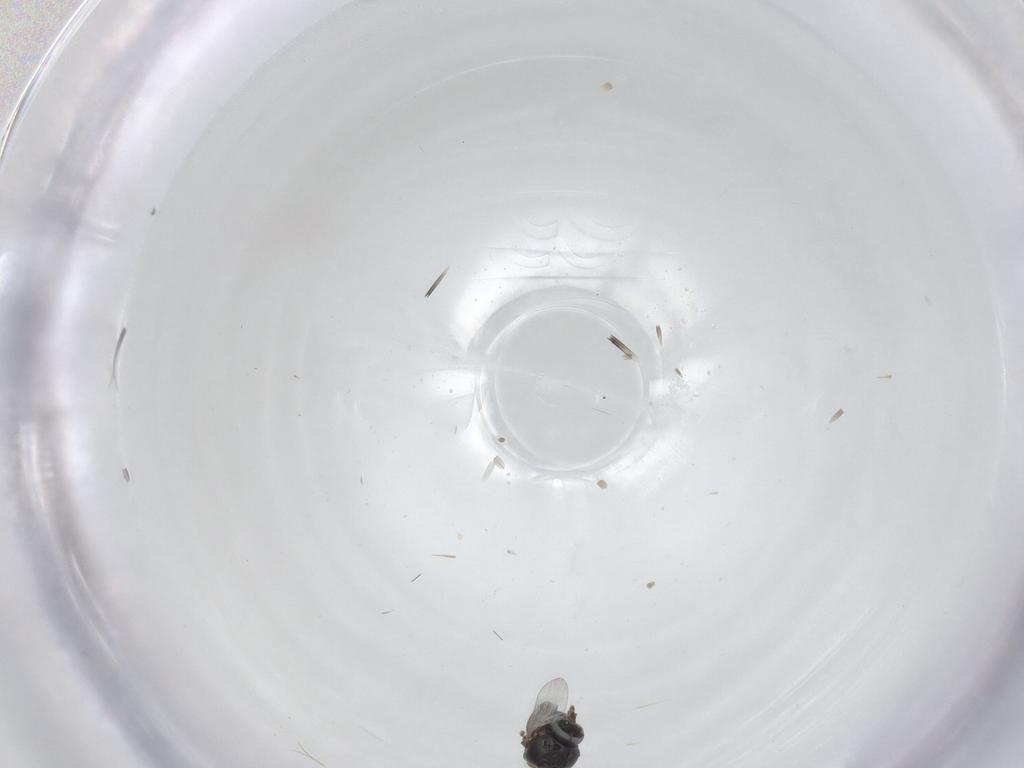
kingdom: Animalia
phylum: Arthropoda
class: Insecta
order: Diptera
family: Ceratopogonidae
